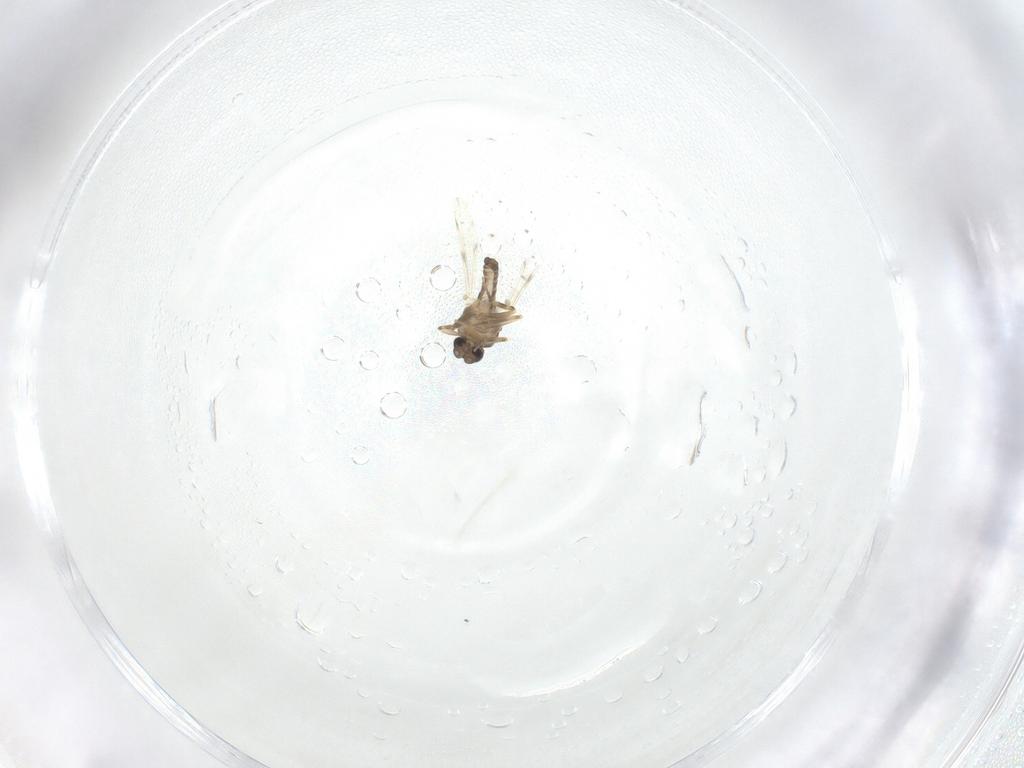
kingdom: Animalia
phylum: Arthropoda
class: Insecta
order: Diptera
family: Ceratopogonidae
